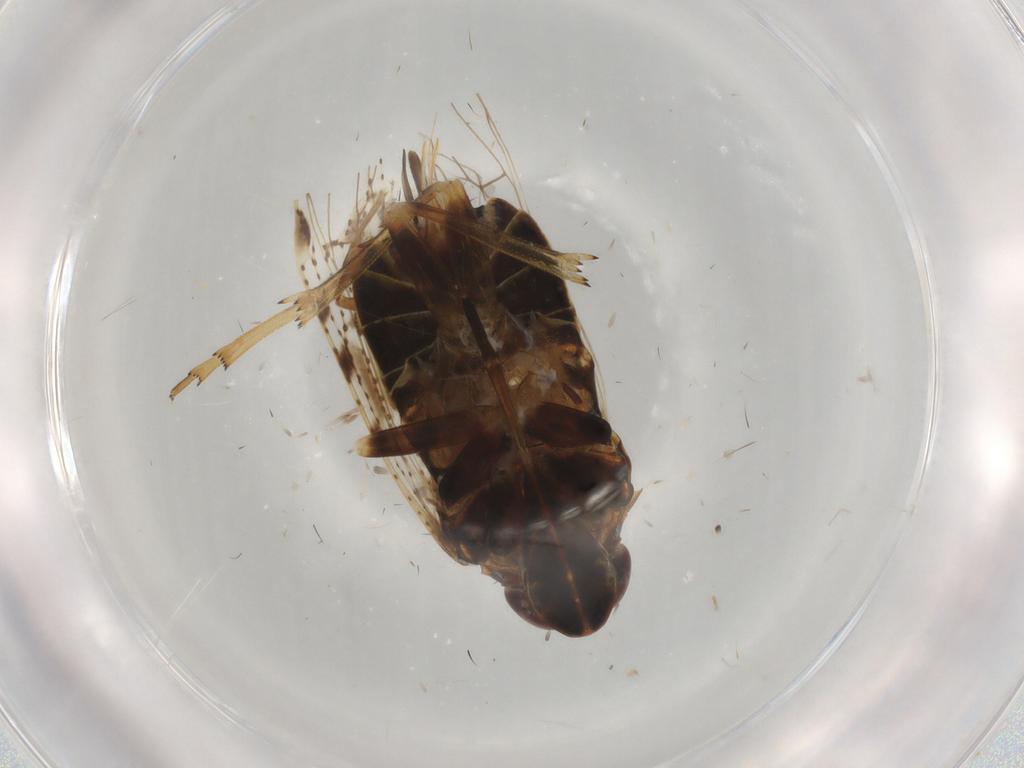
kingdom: Animalia
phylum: Arthropoda
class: Insecta
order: Hemiptera
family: Cixiidae
